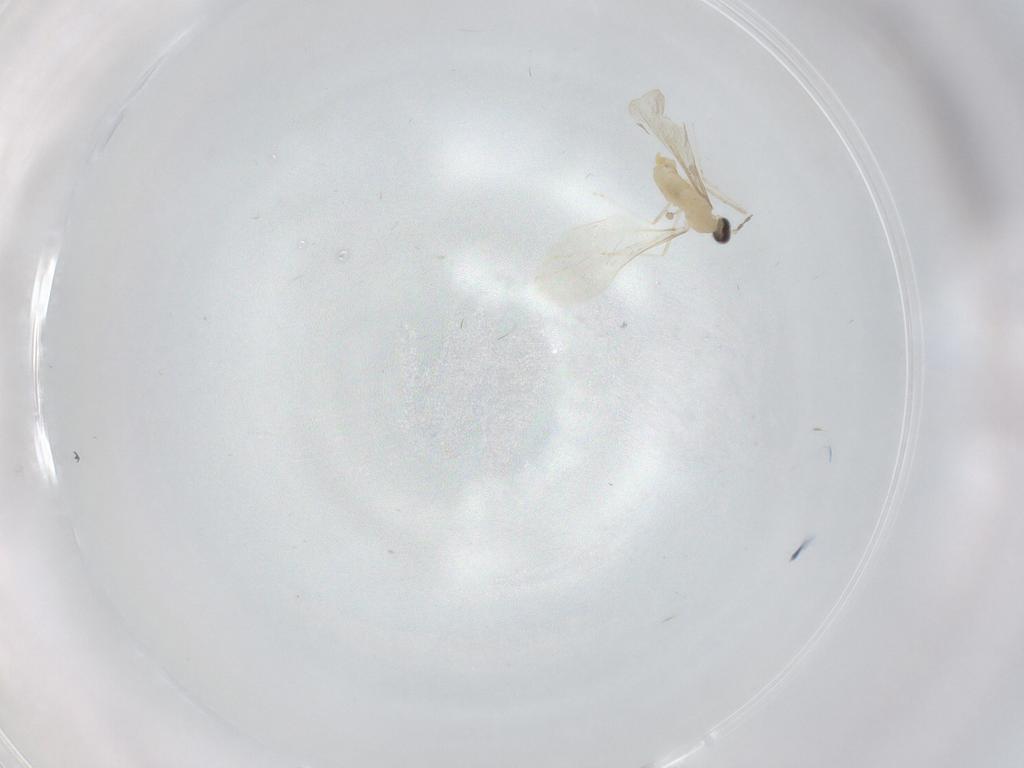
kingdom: Animalia
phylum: Arthropoda
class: Insecta
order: Diptera
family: Cecidomyiidae
